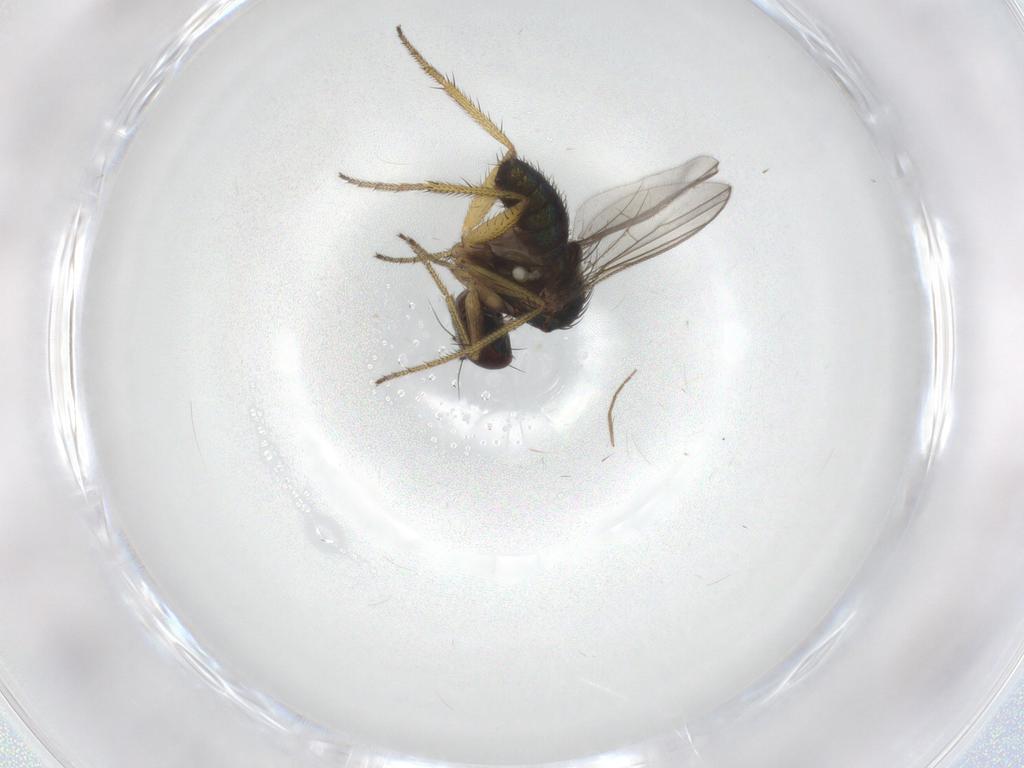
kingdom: Animalia
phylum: Arthropoda
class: Insecta
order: Diptera
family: Chironomidae
